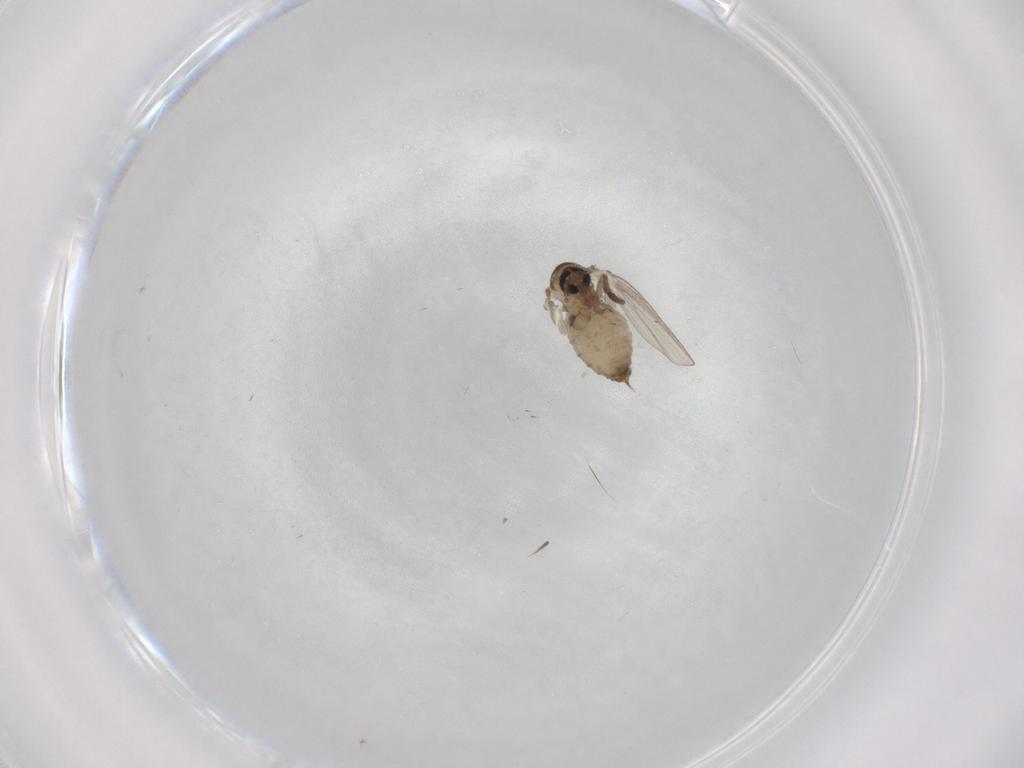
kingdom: Animalia
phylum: Arthropoda
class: Insecta
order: Diptera
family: Psychodidae
